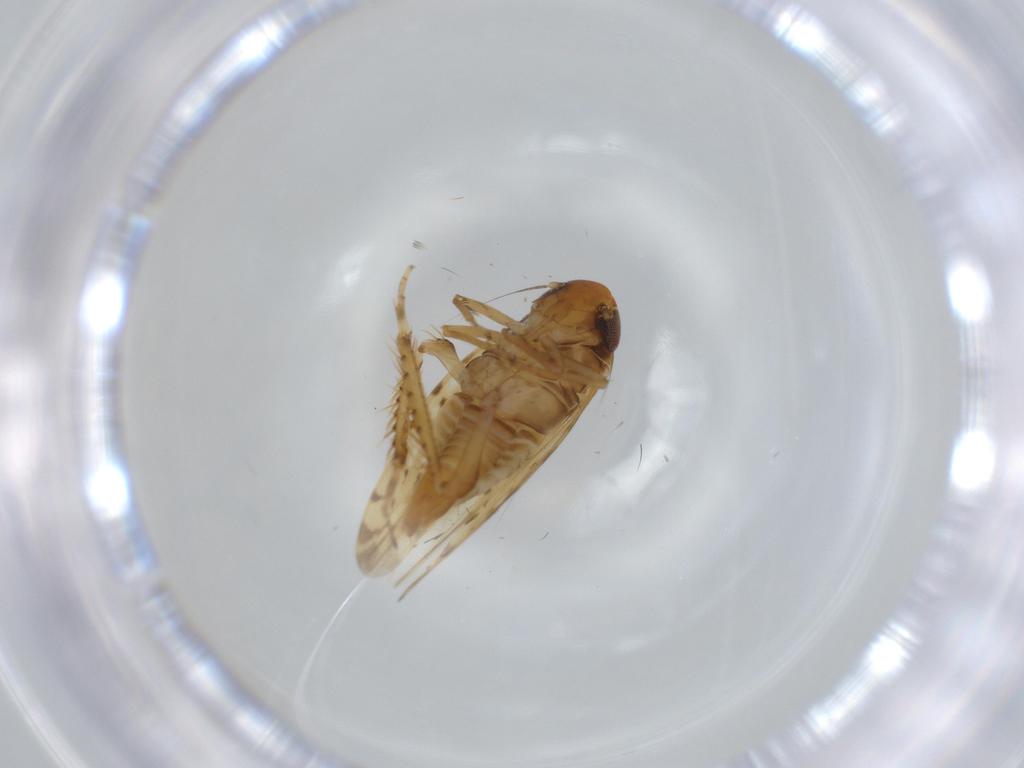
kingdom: Animalia
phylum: Arthropoda
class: Insecta
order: Hemiptera
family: Cicadellidae
